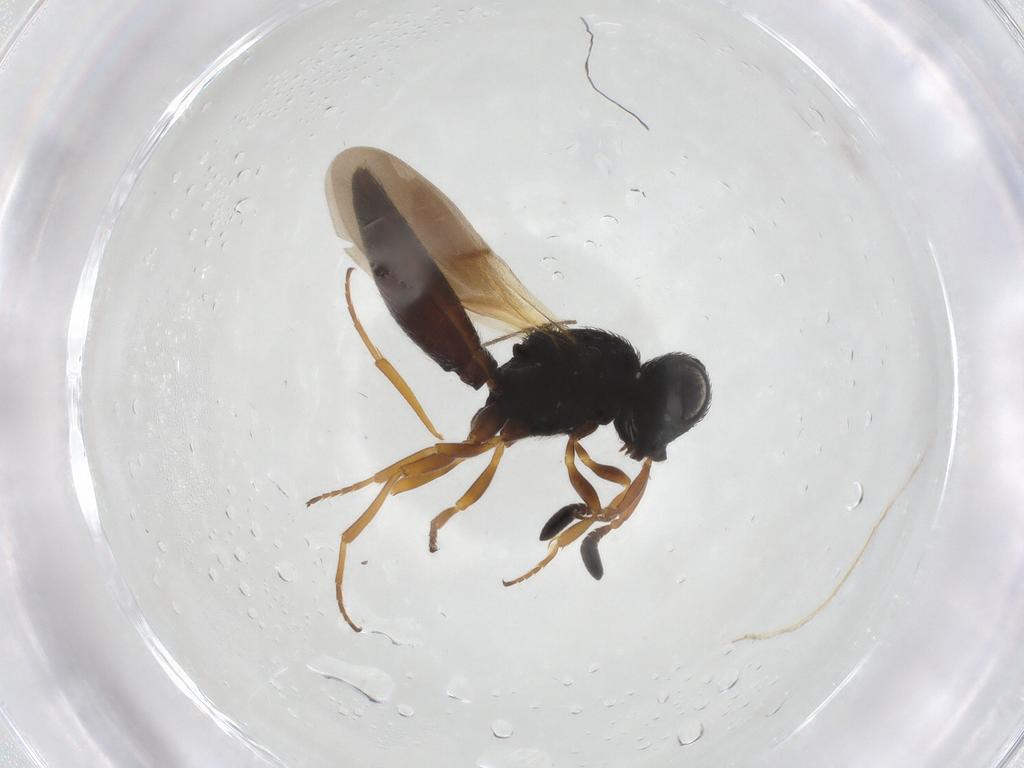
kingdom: Animalia
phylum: Arthropoda
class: Insecta
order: Hymenoptera
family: Scelionidae
